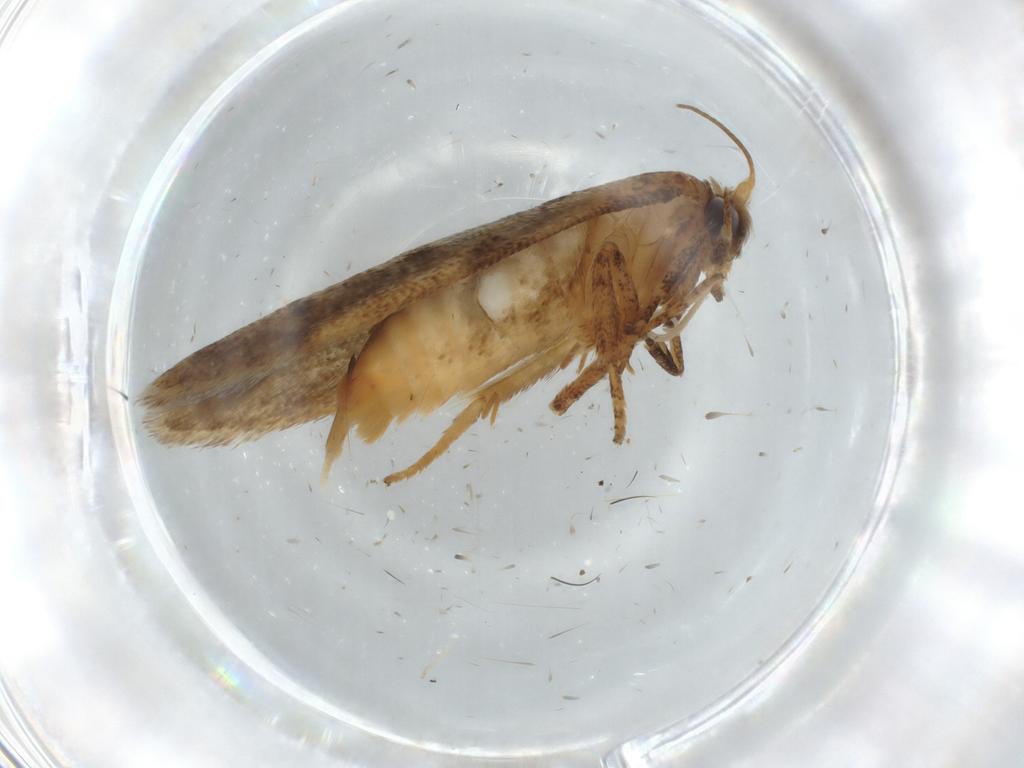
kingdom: Animalia
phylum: Arthropoda
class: Insecta
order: Lepidoptera
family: Blastobasidae
